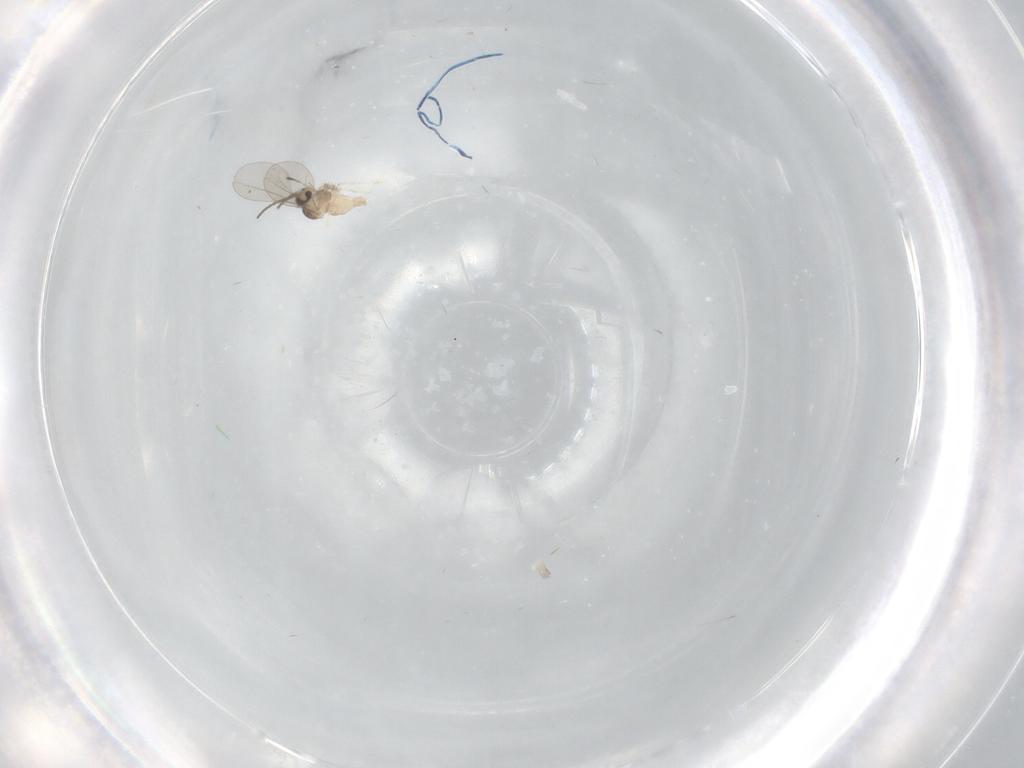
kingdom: Animalia
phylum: Arthropoda
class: Insecta
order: Diptera
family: Cecidomyiidae
